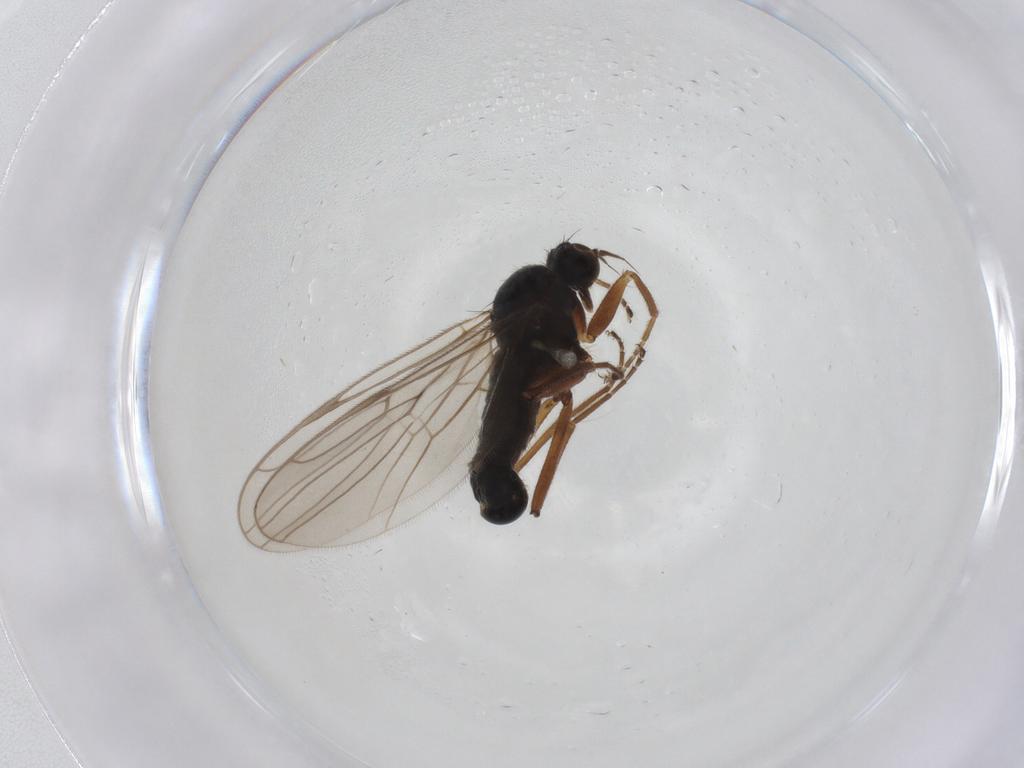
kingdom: Animalia
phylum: Arthropoda
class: Insecta
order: Diptera
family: Hybotidae
